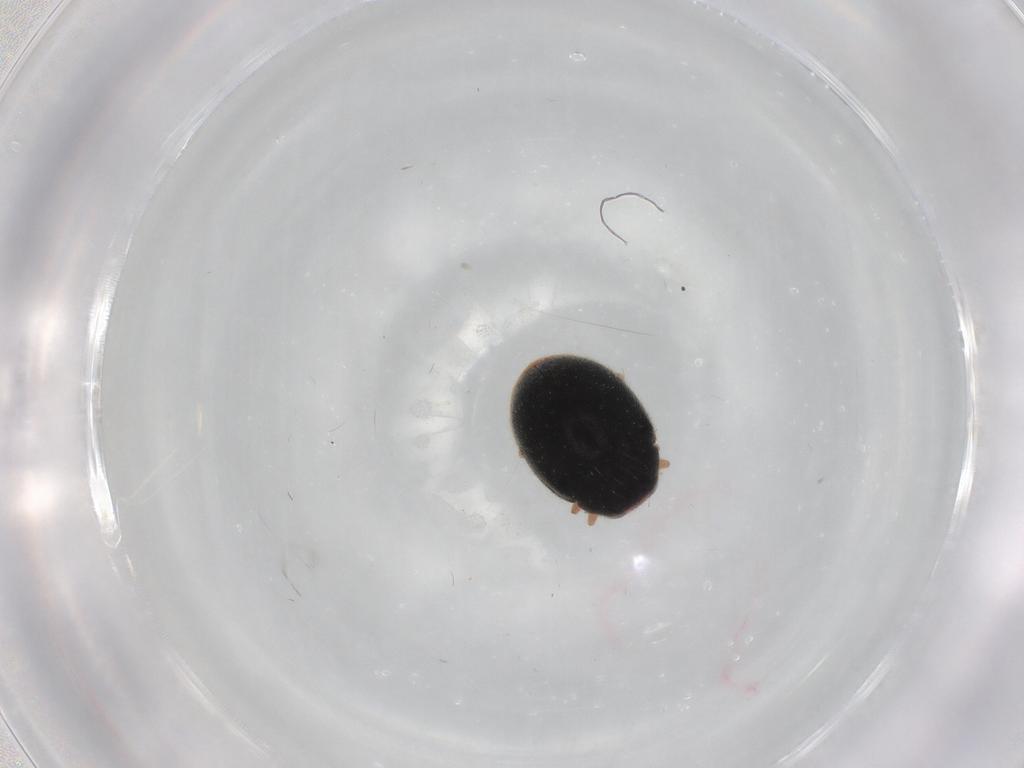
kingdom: Animalia
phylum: Arthropoda
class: Insecta
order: Coleoptera
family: Coccinellidae
